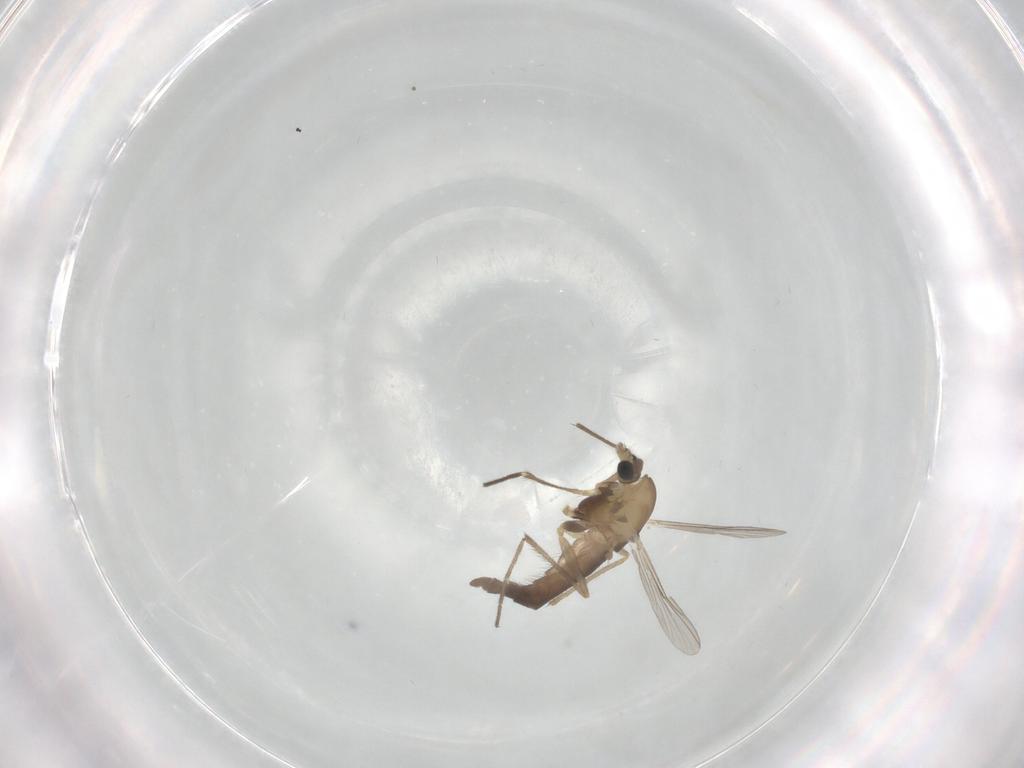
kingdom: Animalia
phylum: Arthropoda
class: Insecta
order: Diptera
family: Chironomidae
